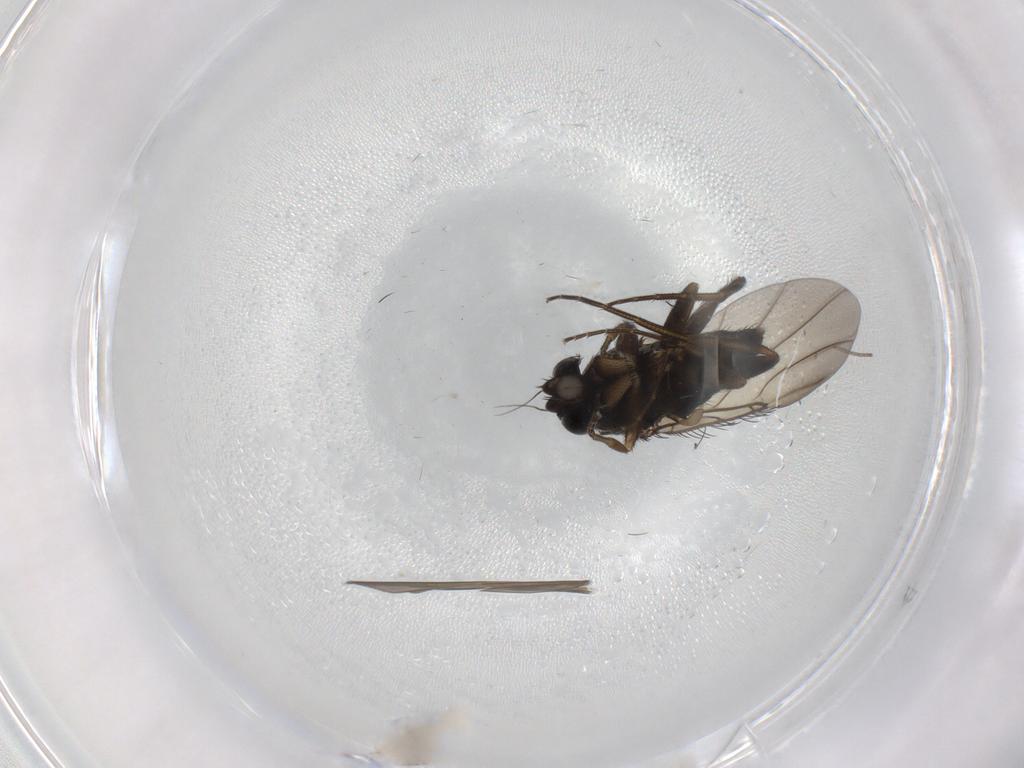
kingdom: Animalia
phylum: Arthropoda
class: Insecta
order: Diptera
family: Phoridae
